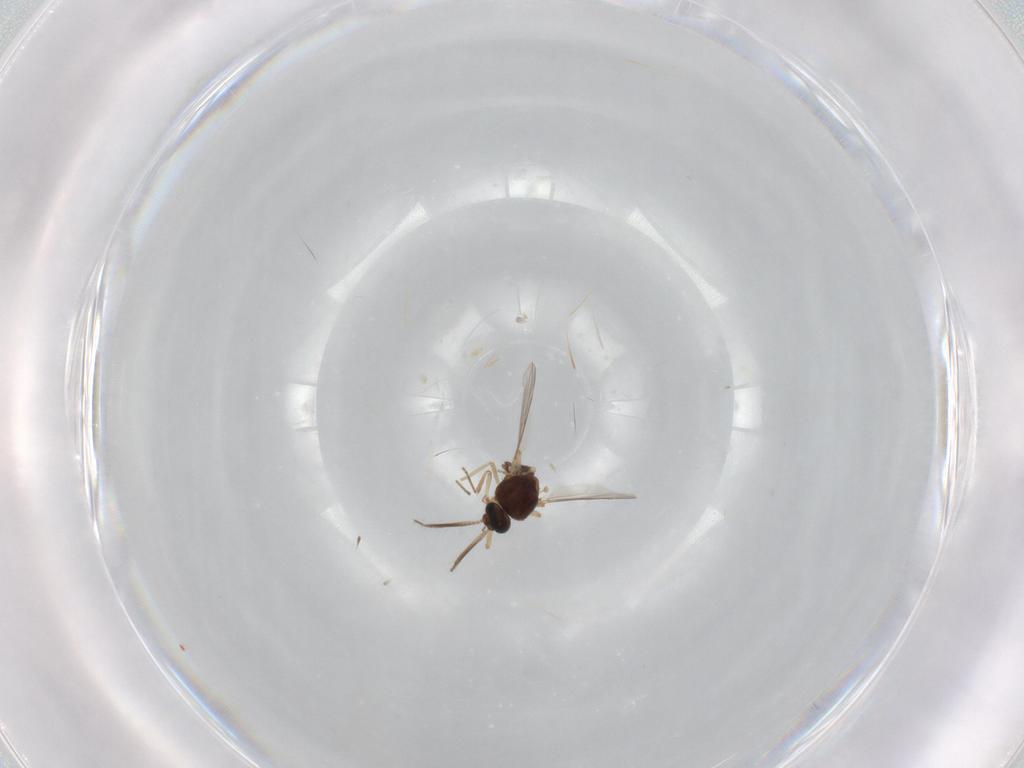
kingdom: Animalia
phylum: Arthropoda
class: Insecta
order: Diptera
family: Ceratopogonidae
